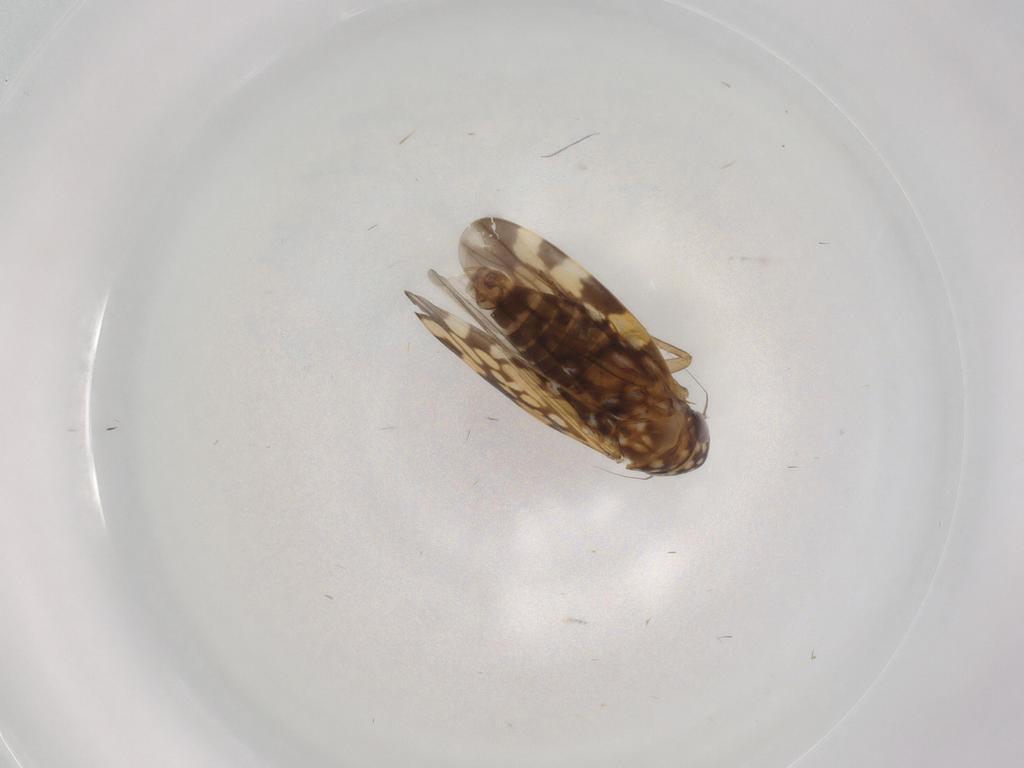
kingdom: Animalia
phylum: Arthropoda
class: Insecta
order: Hemiptera
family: Cicadellidae
